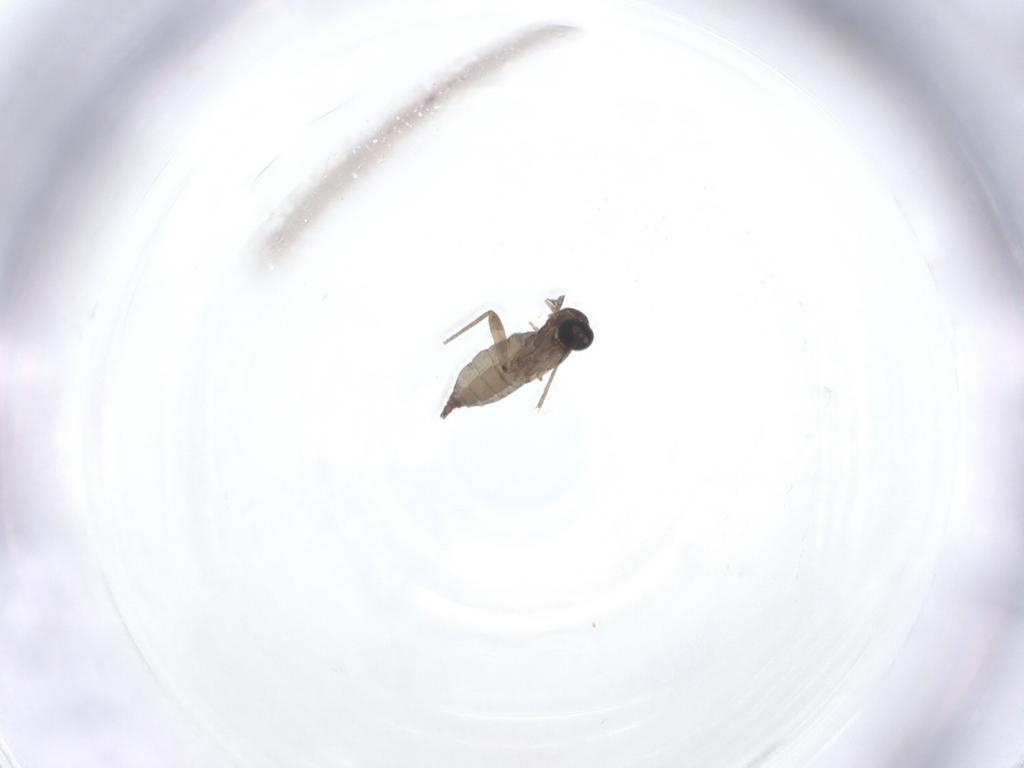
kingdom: Animalia
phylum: Arthropoda
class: Insecta
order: Diptera
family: Sciaridae
